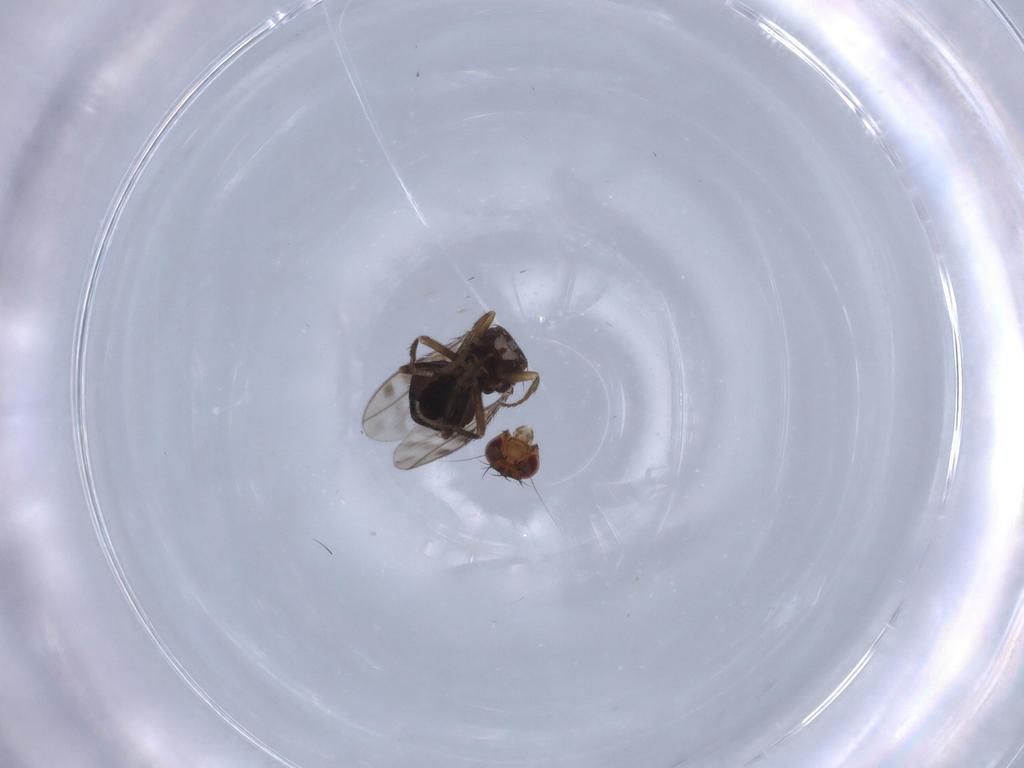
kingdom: Animalia
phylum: Arthropoda
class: Insecta
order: Diptera
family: Sphaeroceridae
